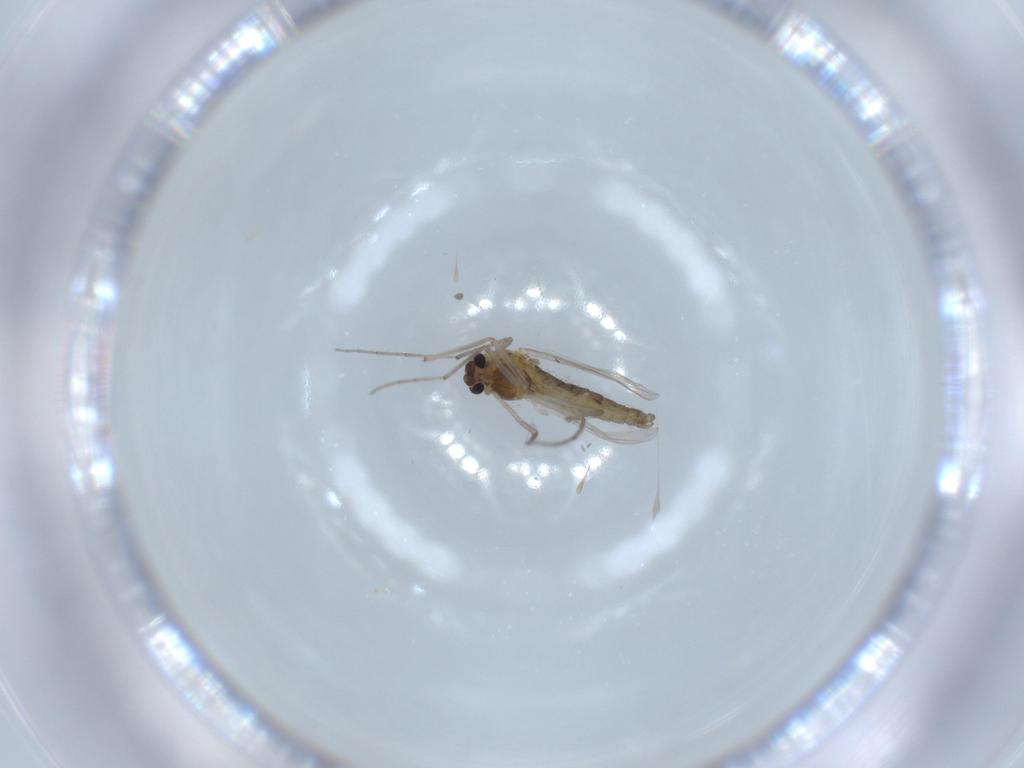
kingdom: Animalia
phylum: Arthropoda
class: Insecta
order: Diptera
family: Chironomidae
